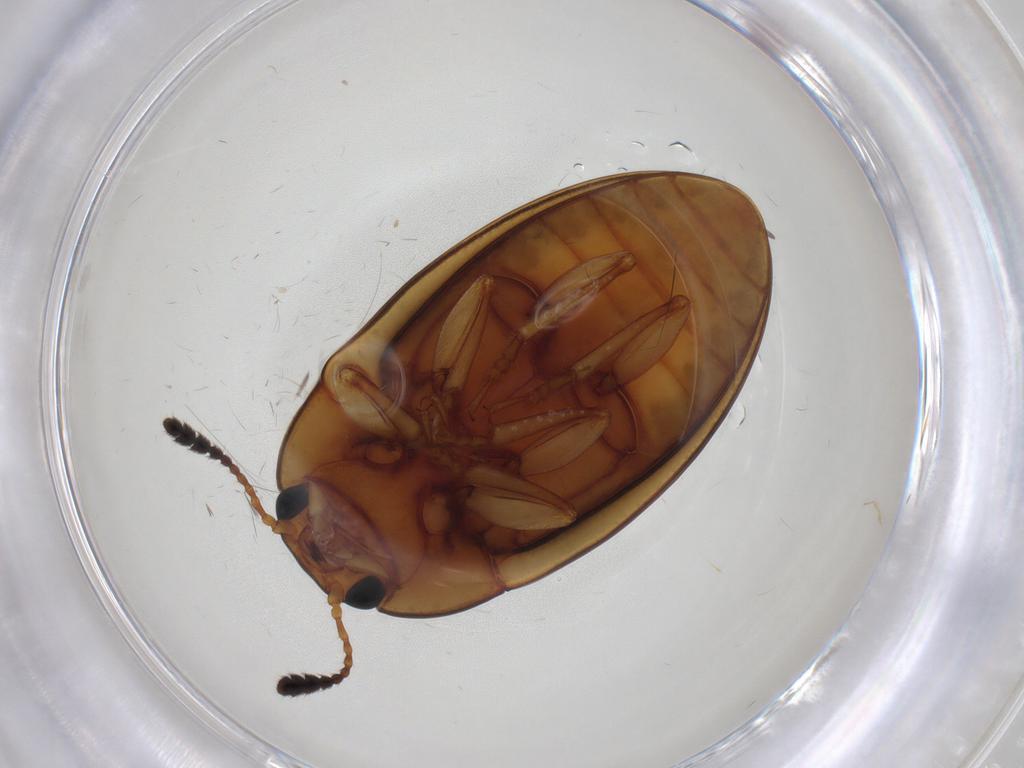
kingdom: Animalia
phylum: Arthropoda
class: Insecta
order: Coleoptera
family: Erotylidae
